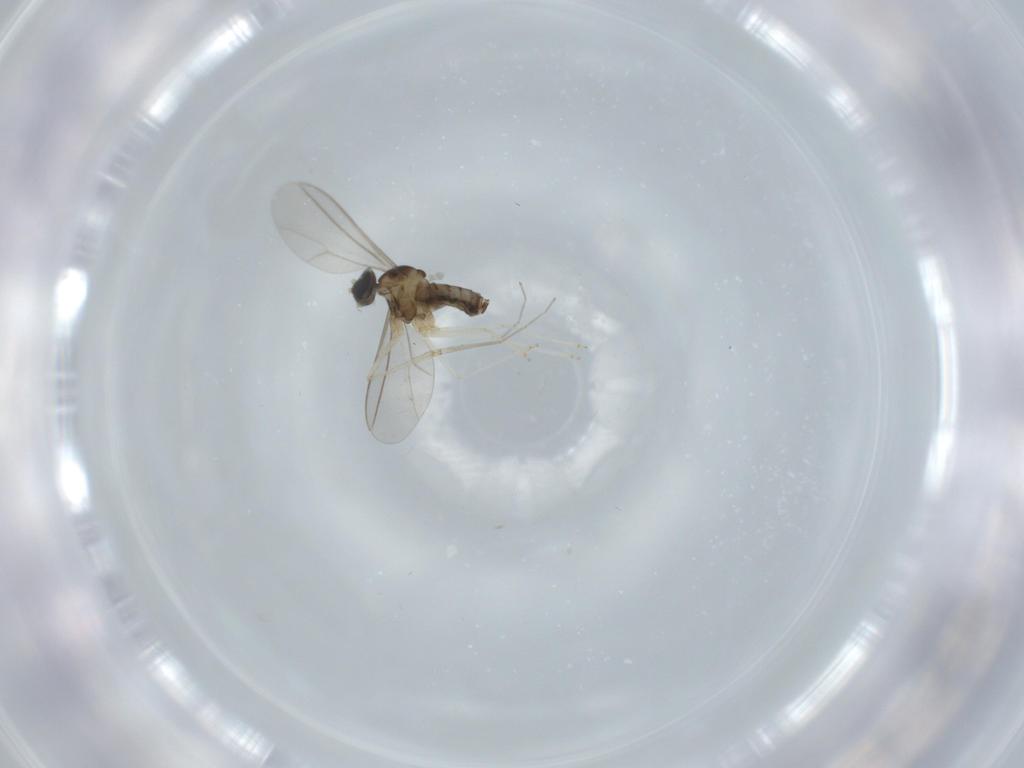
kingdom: Animalia
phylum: Arthropoda
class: Insecta
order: Diptera
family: Cecidomyiidae
